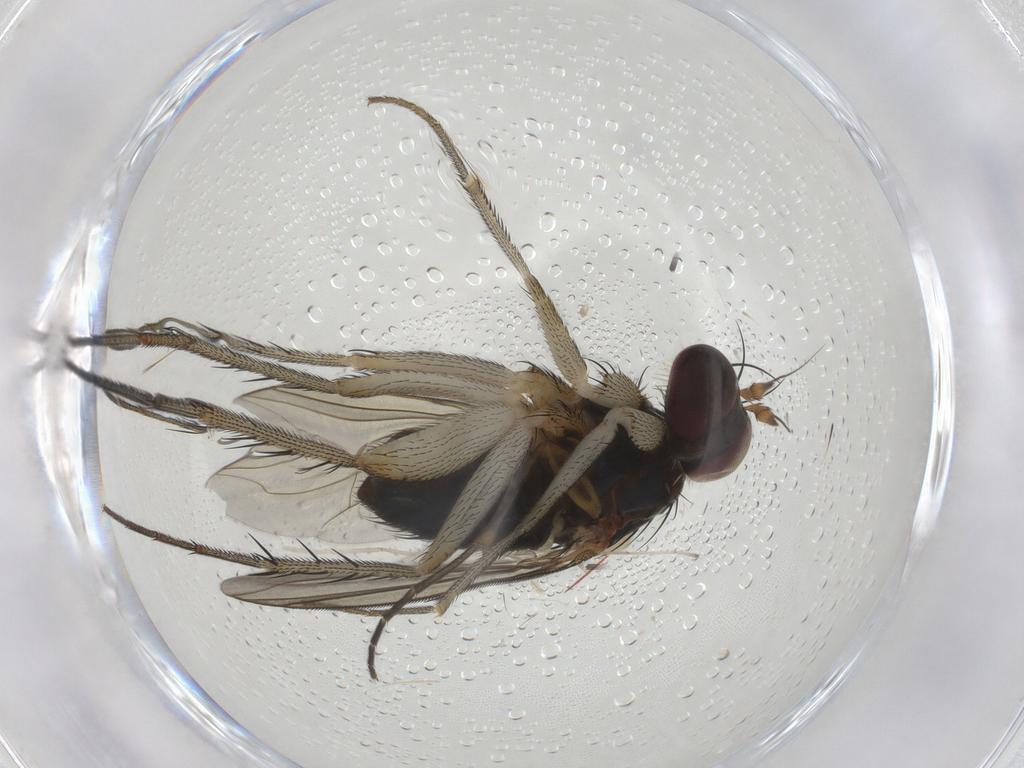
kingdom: Animalia
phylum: Arthropoda
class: Insecta
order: Diptera
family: Dolichopodidae
